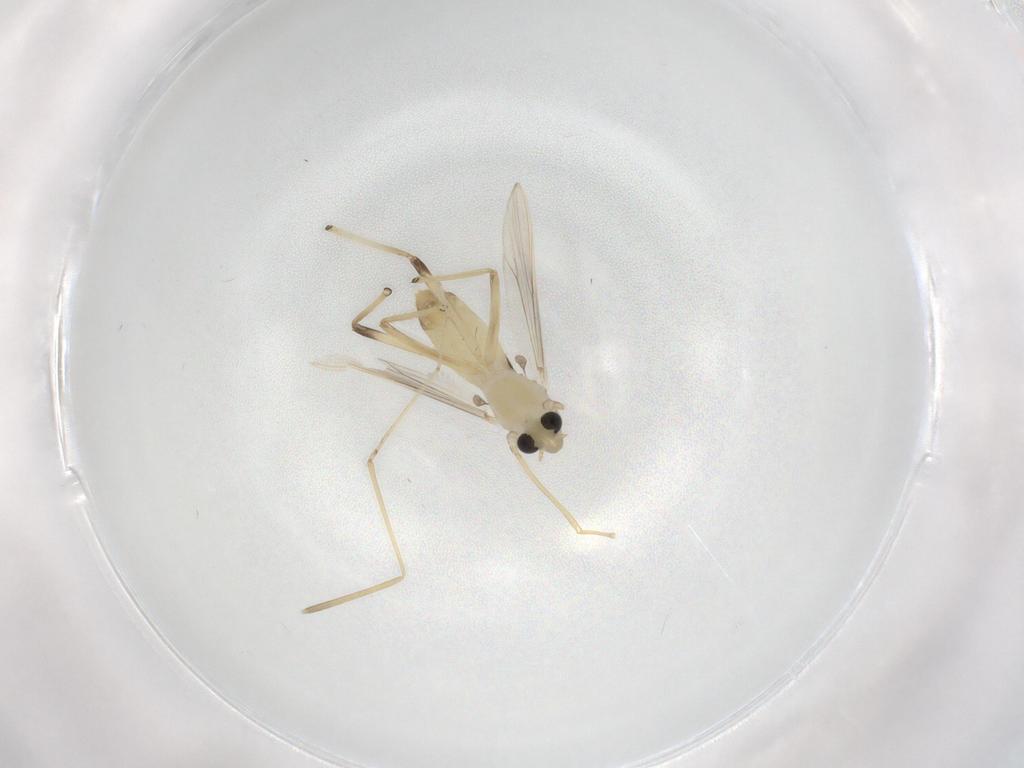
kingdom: Animalia
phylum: Arthropoda
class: Insecta
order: Diptera
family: Chironomidae
